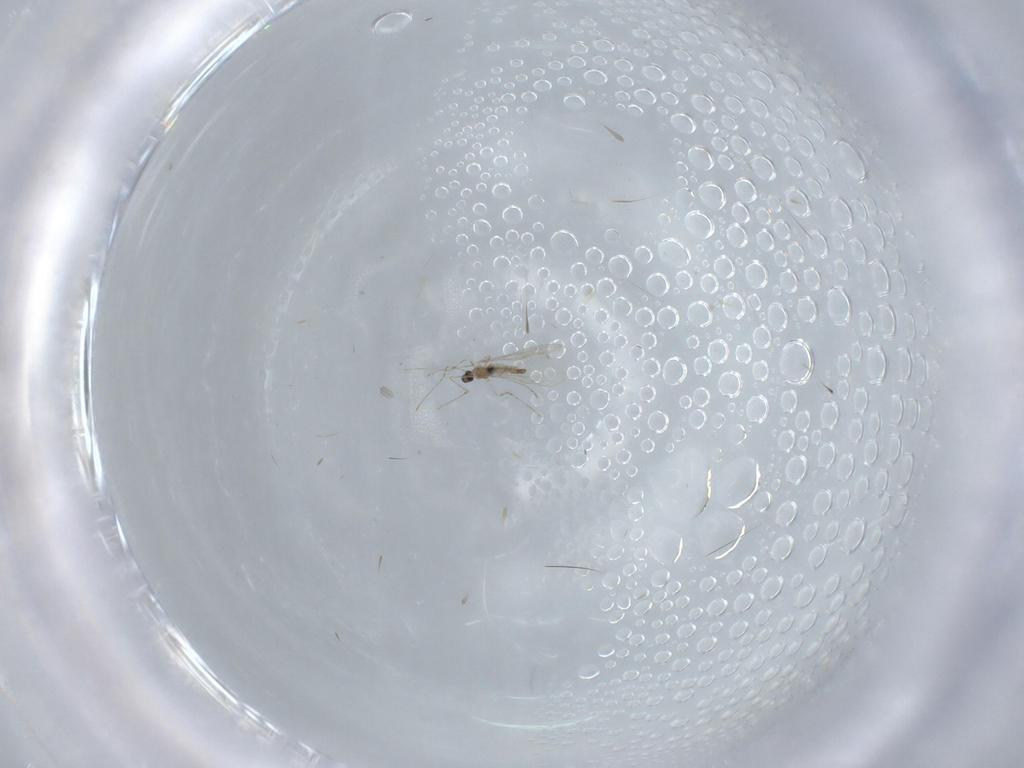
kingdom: Animalia
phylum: Arthropoda
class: Insecta
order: Diptera
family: Cecidomyiidae
